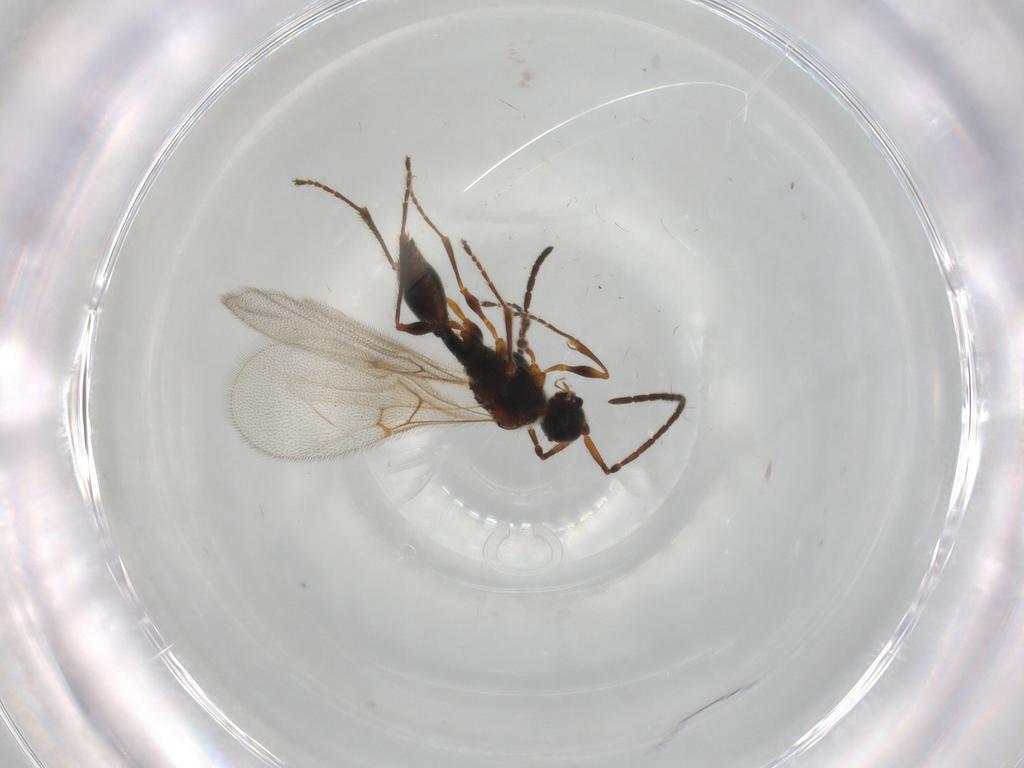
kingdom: Animalia
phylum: Arthropoda
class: Insecta
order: Hymenoptera
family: Diapriidae
